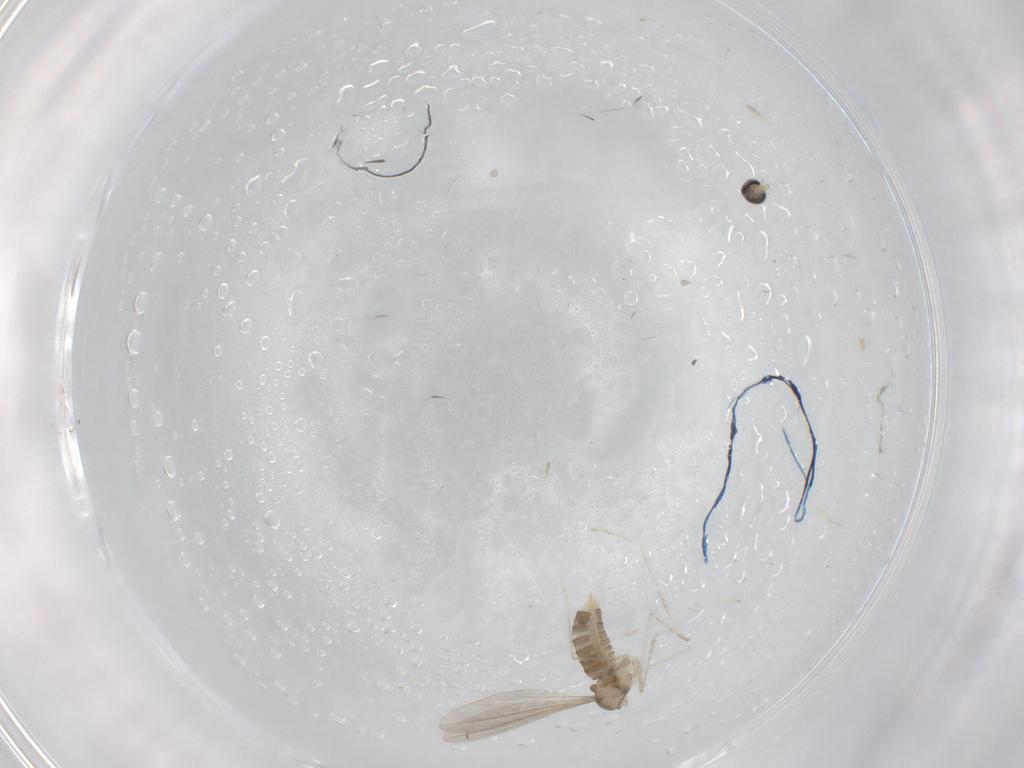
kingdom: Animalia
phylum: Arthropoda
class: Insecta
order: Diptera
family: Cecidomyiidae
